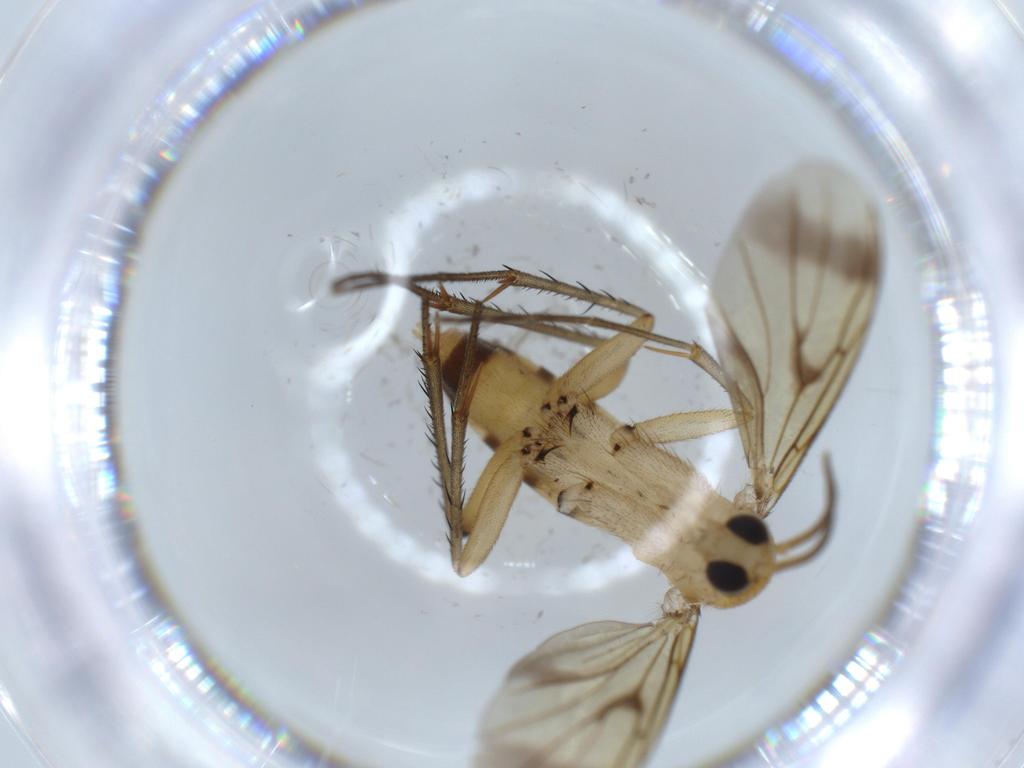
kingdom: Animalia
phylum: Arthropoda
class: Insecta
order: Diptera
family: Mycetophilidae
